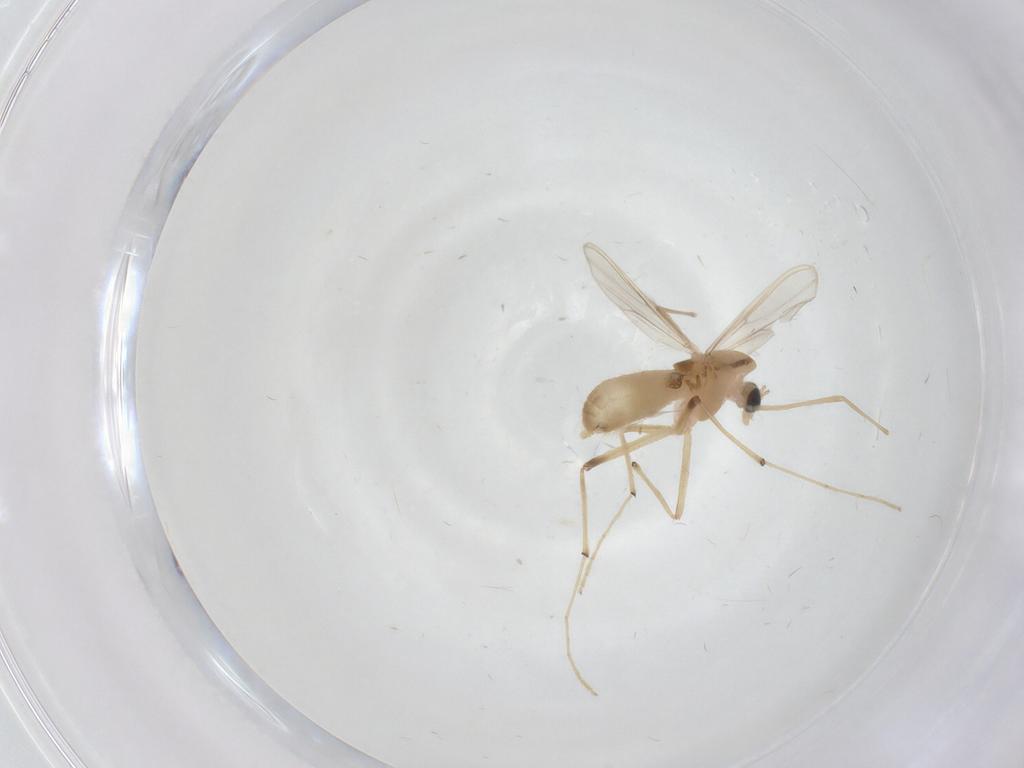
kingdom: Animalia
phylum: Arthropoda
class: Insecta
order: Diptera
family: Chironomidae
